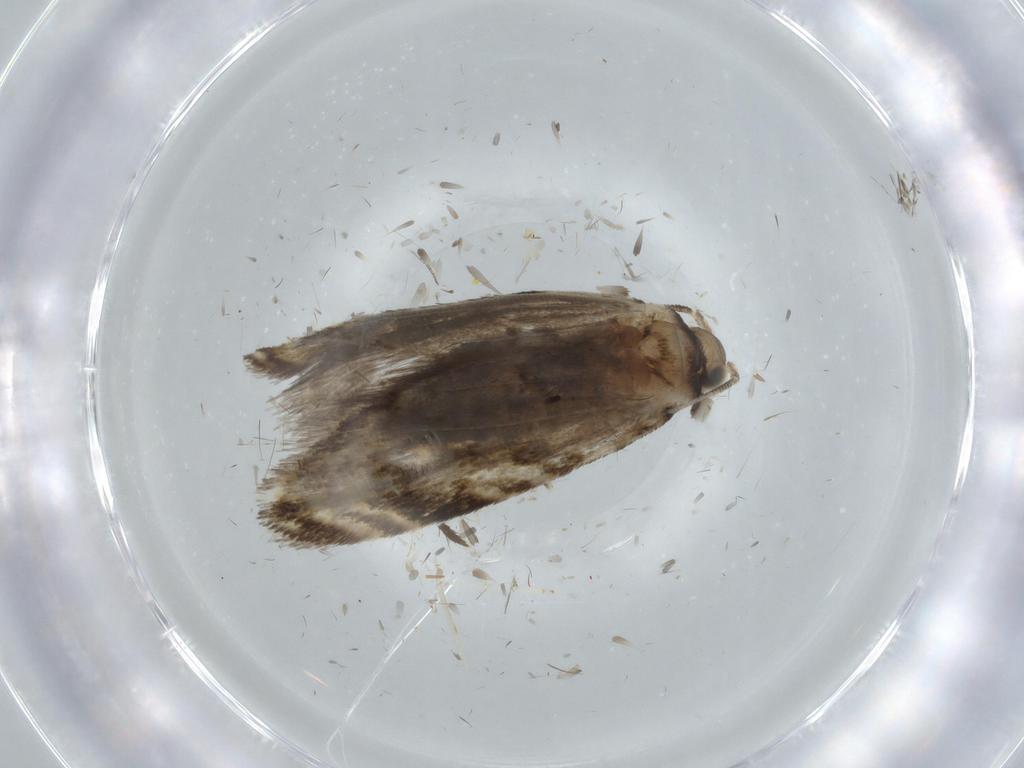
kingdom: Animalia
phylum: Arthropoda
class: Insecta
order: Lepidoptera
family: Tineidae
